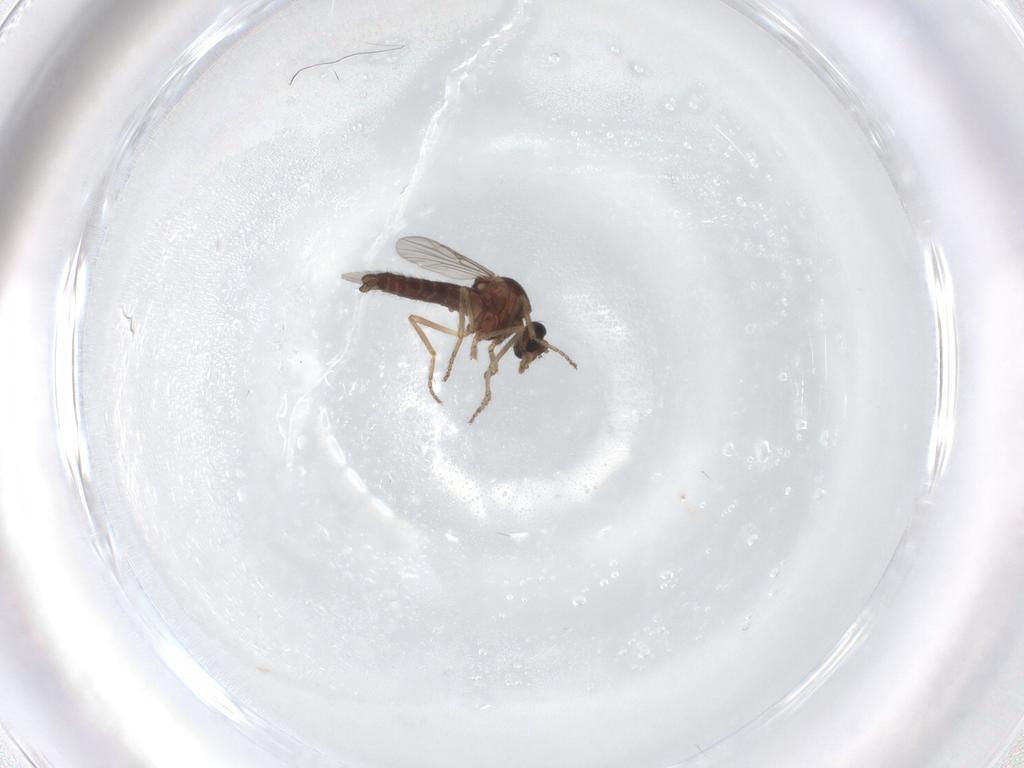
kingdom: Animalia
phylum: Arthropoda
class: Insecta
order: Diptera
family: Ceratopogonidae
